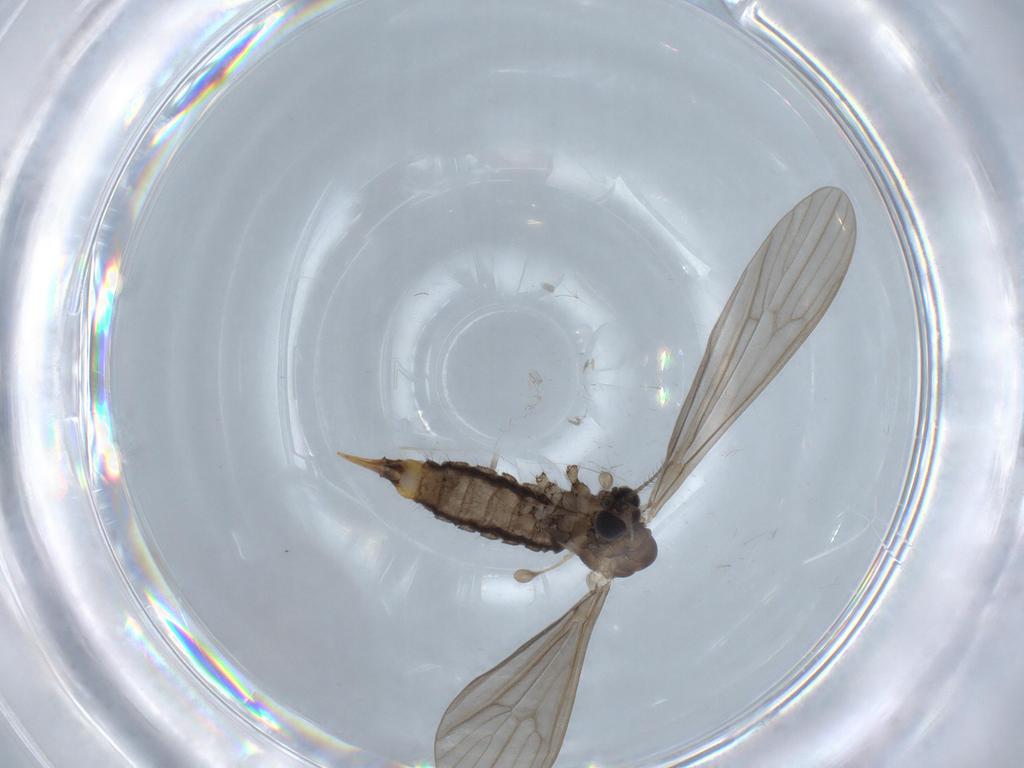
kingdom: Animalia
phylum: Arthropoda
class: Insecta
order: Diptera
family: Limoniidae
